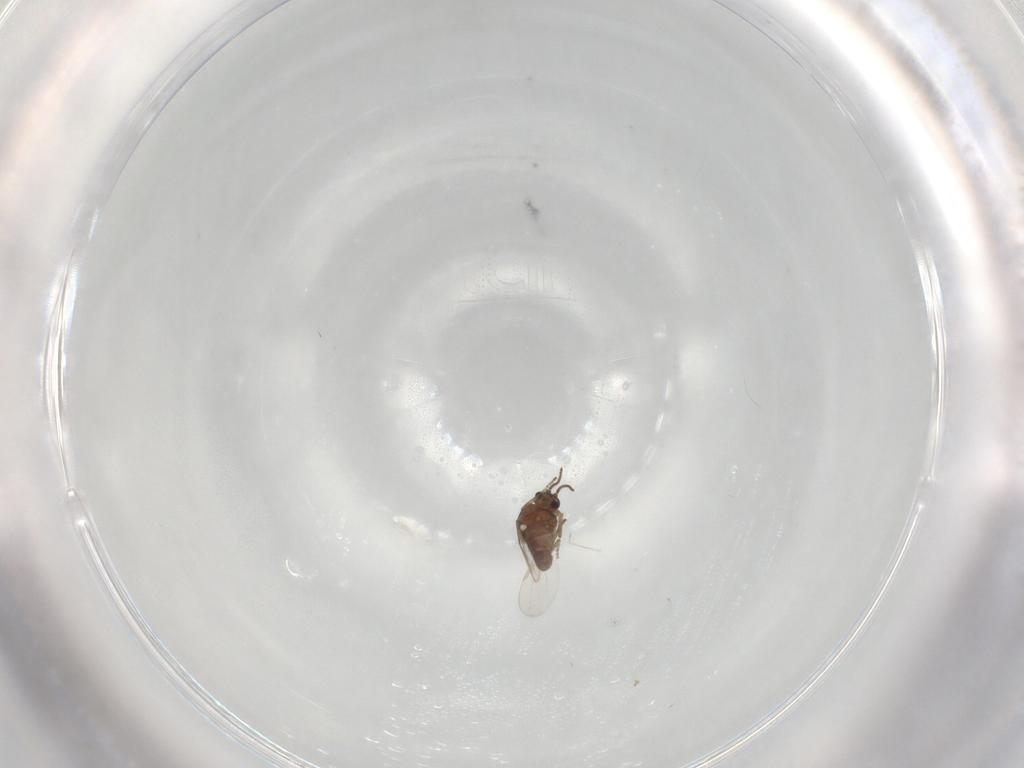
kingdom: Animalia
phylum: Arthropoda
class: Insecta
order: Diptera
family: Ceratopogonidae
